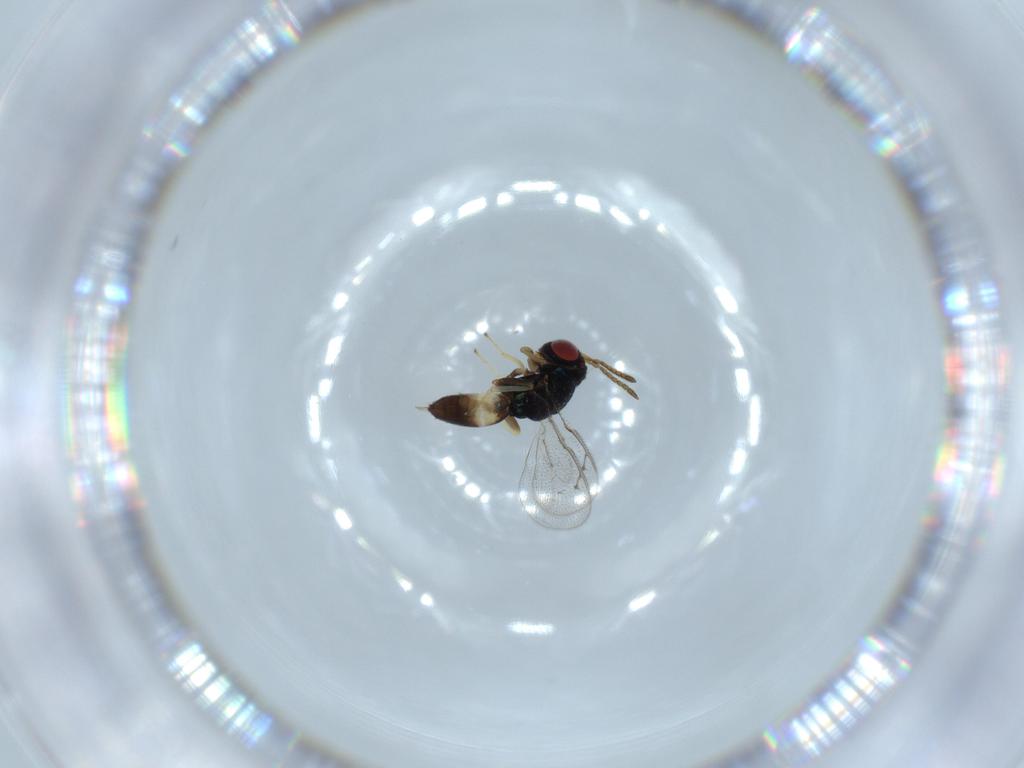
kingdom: Animalia
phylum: Arthropoda
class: Insecta
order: Hymenoptera
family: Pteromalidae
